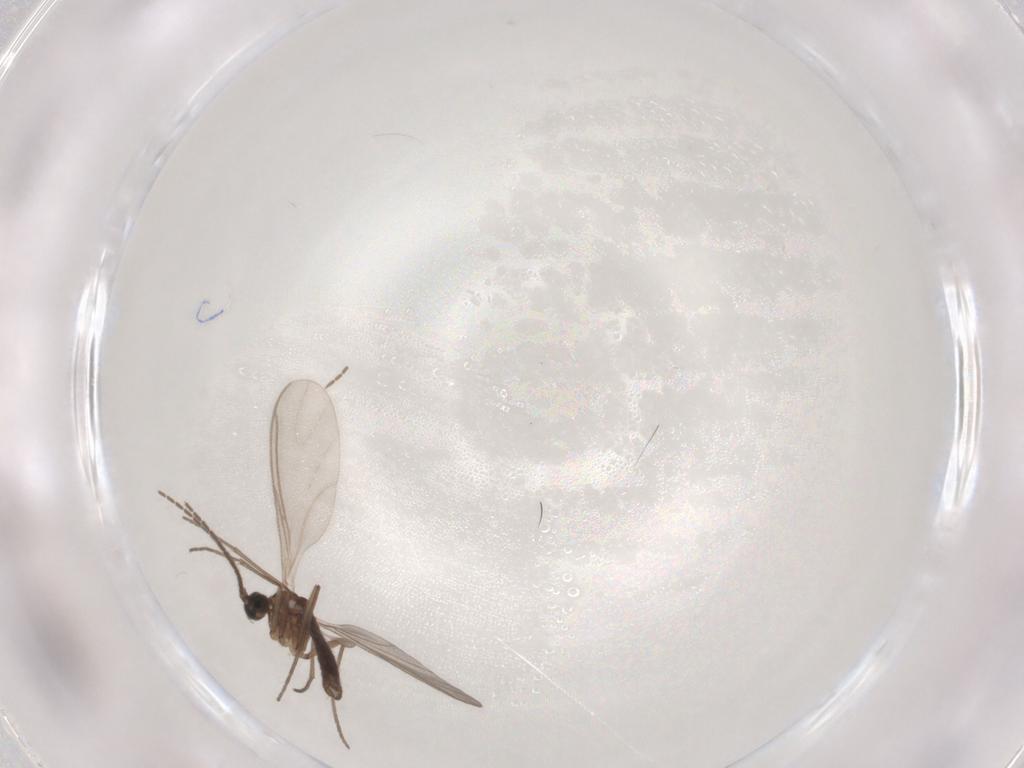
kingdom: Animalia
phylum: Arthropoda
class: Insecta
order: Diptera
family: Sciaridae
